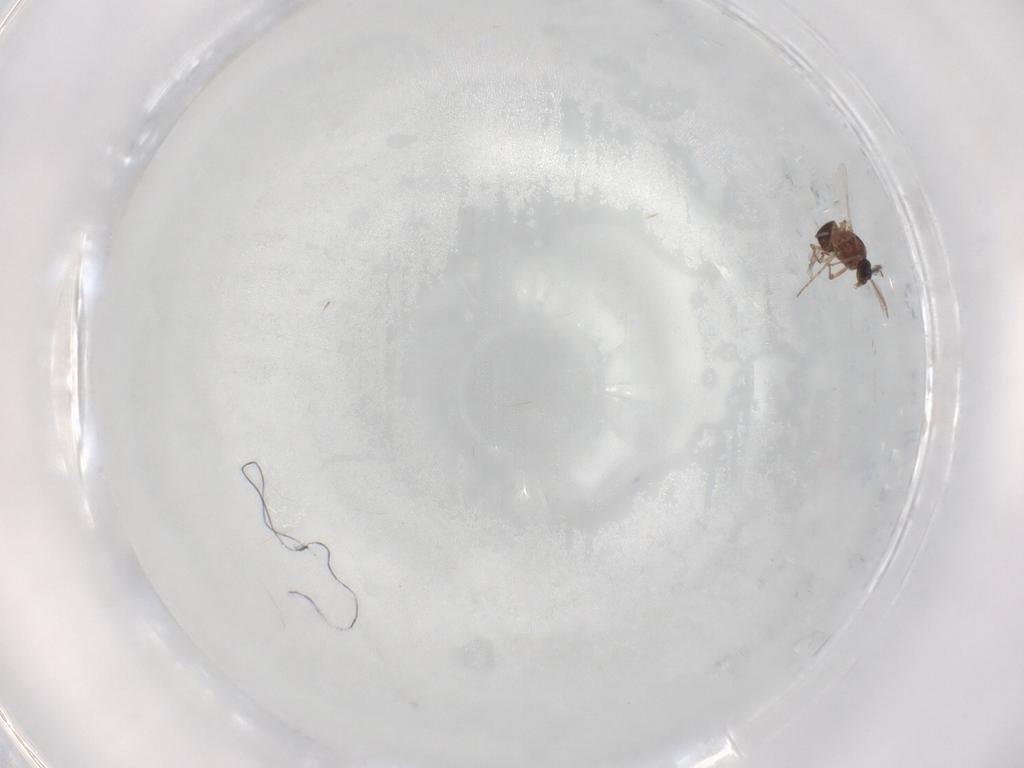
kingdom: Animalia
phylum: Arthropoda
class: Insecta
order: Diptera
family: Ceratopogonidae
